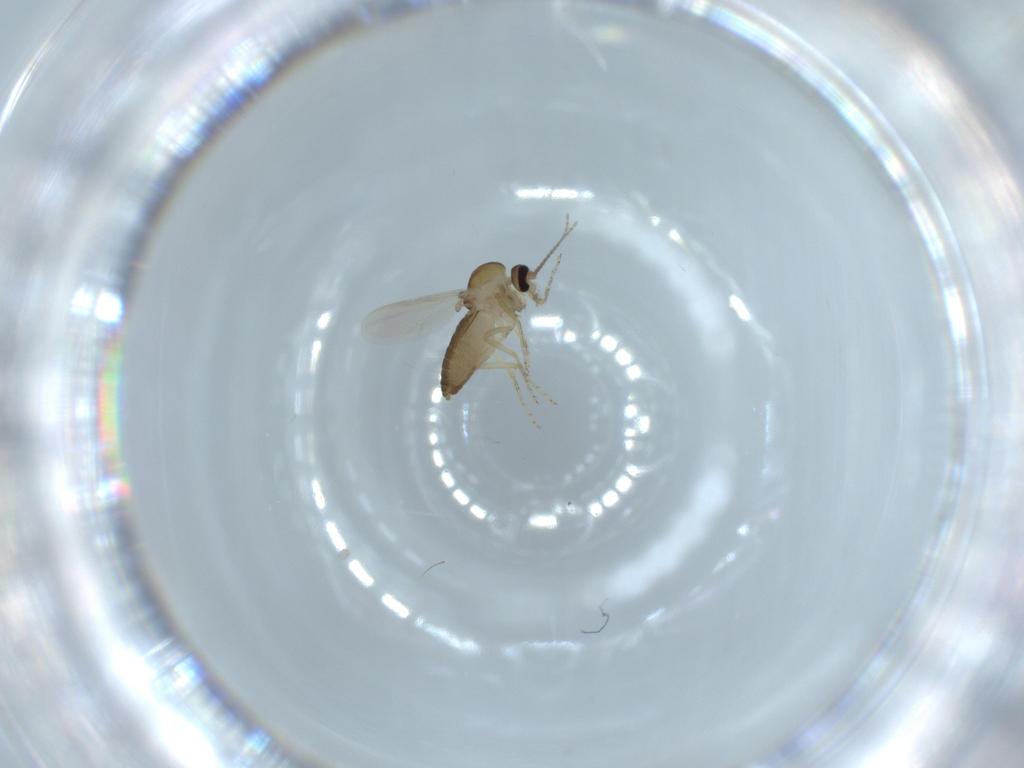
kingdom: Animalia
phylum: Arthropoda
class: Insecta
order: Diptera
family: Ceratopogonidae
